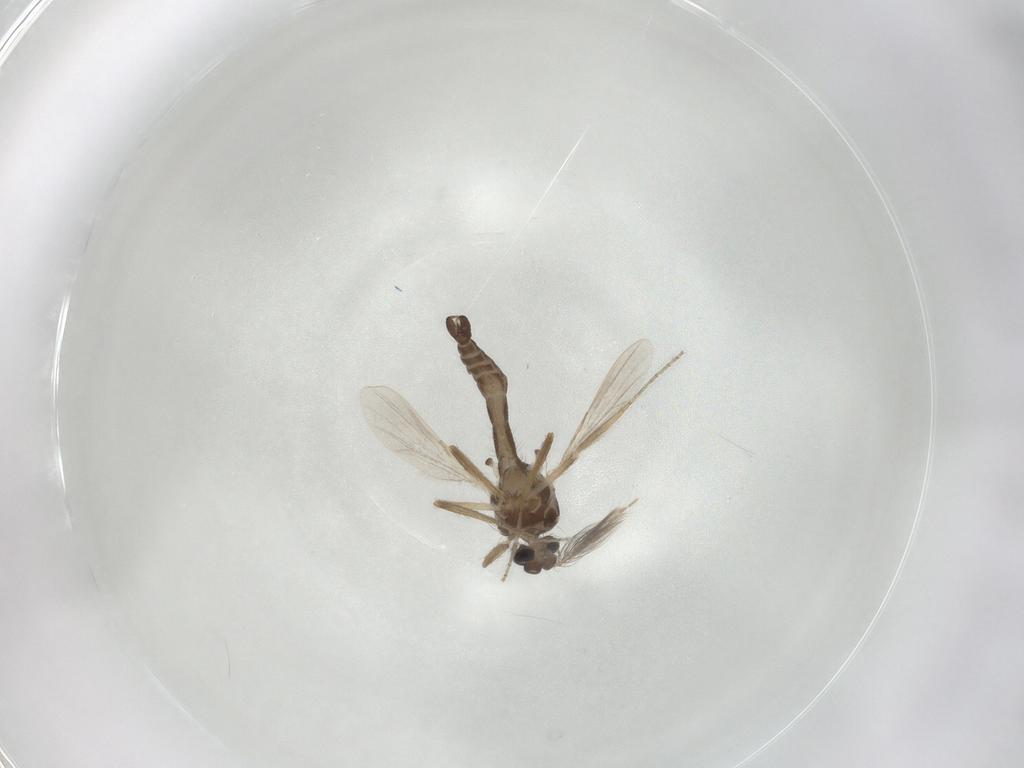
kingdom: Animalia
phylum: Arthropoda
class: Insecta
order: Diptera
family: Ceratopogonidae
